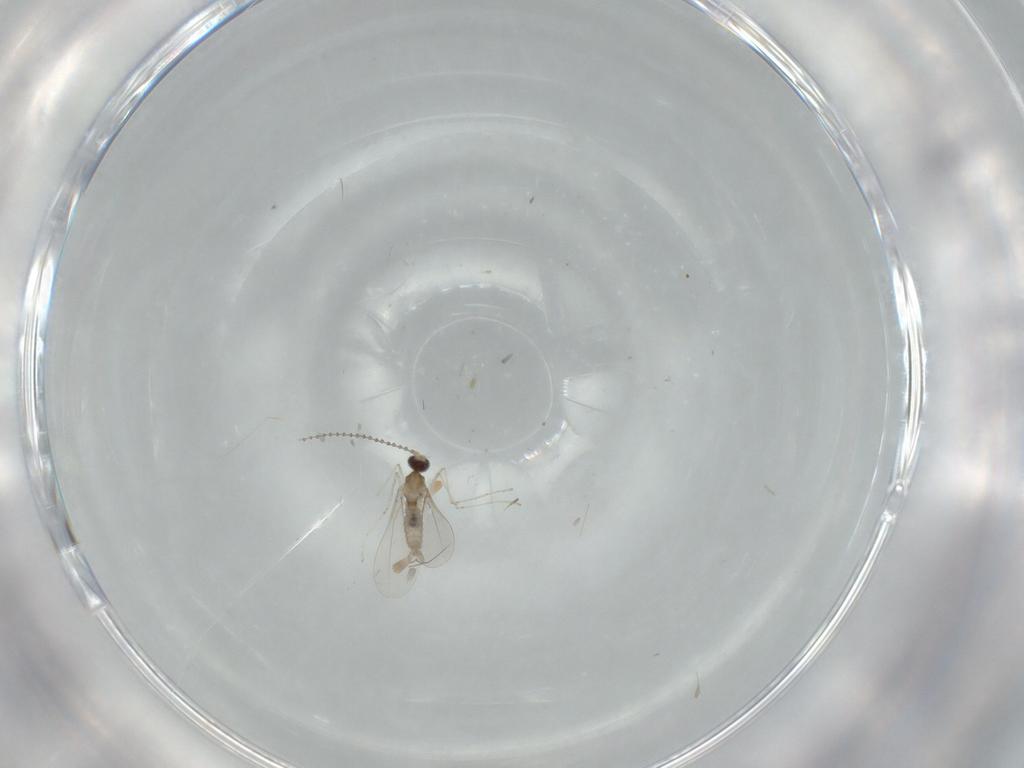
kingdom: Animalia
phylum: Arthropoda
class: Insecta
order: Diptera
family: Cecidomyiidae
